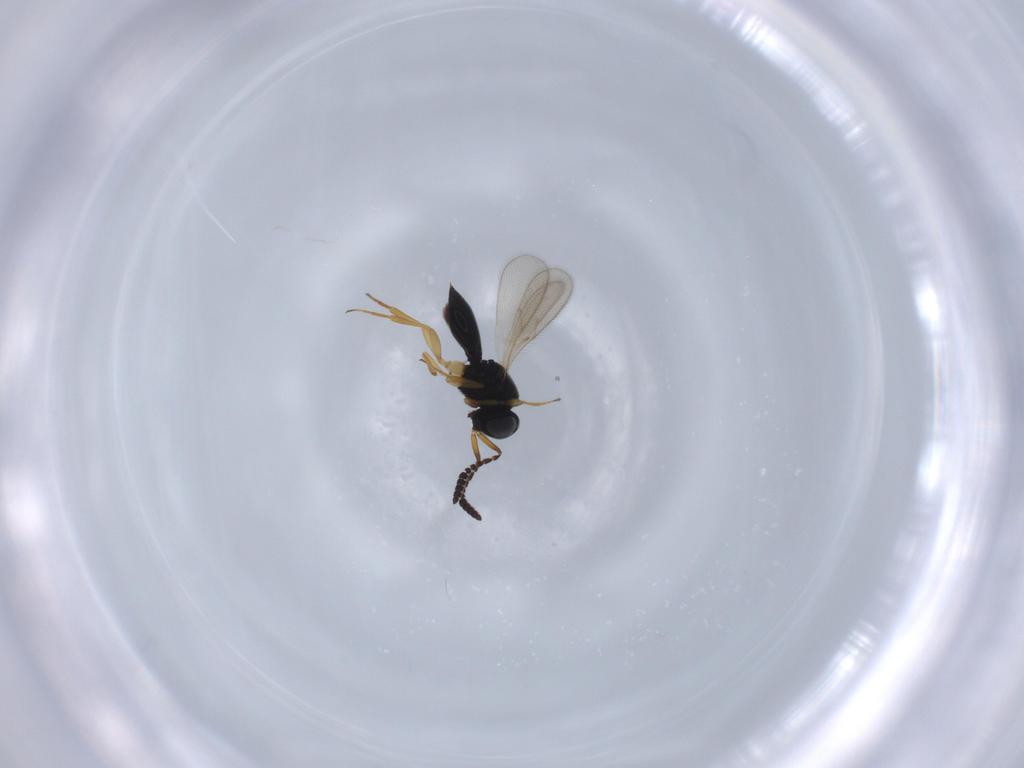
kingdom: Animalia
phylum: Arthropoda
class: Insecta
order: Hymenoptera
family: Scelionidae
